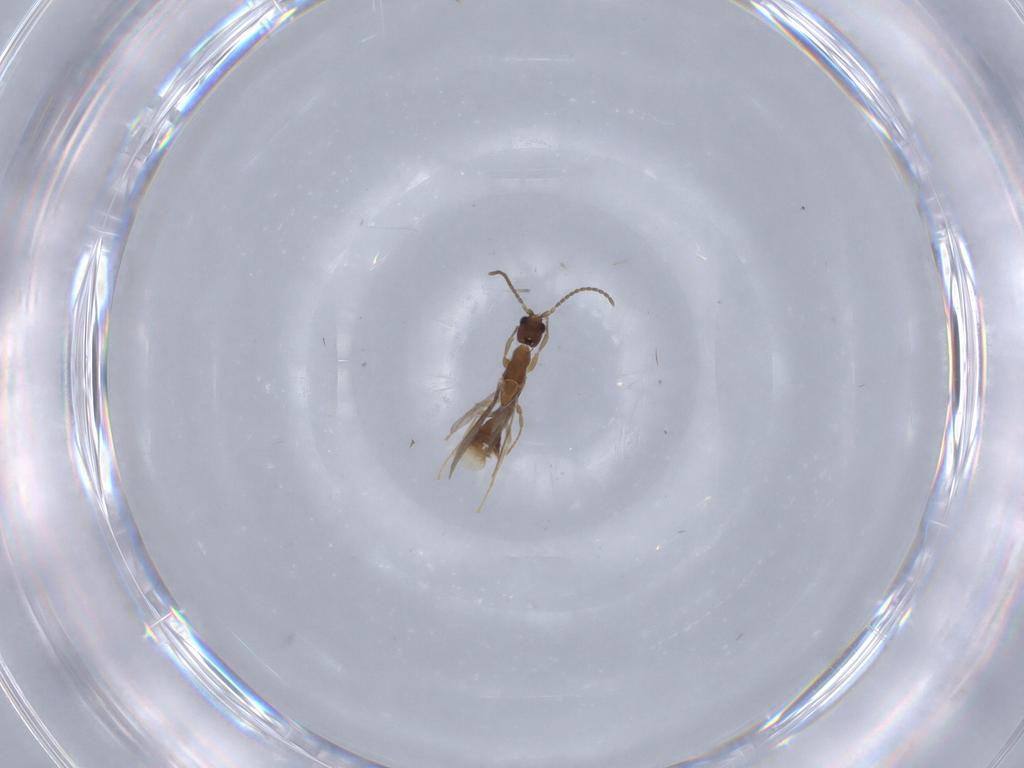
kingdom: Animalia
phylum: Arthropoda
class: Insecta
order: Hymenoptera
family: Formicidae
